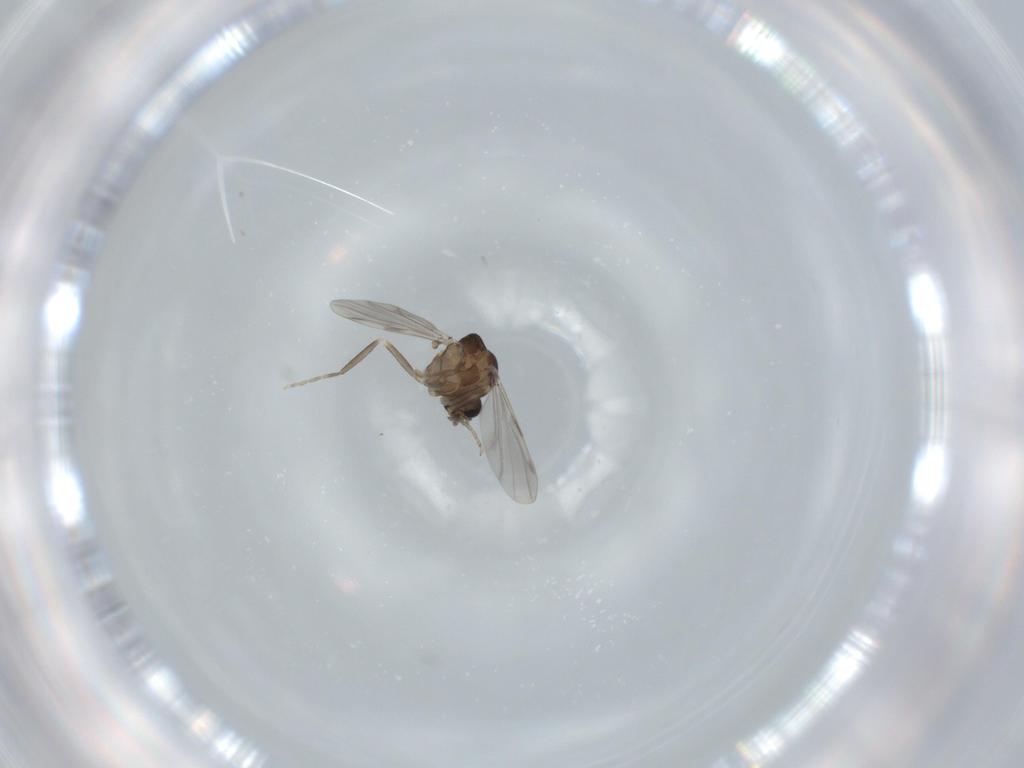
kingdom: Animalia
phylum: Arthropoda
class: Insecta
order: Diptera
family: Ceratopogonidae
